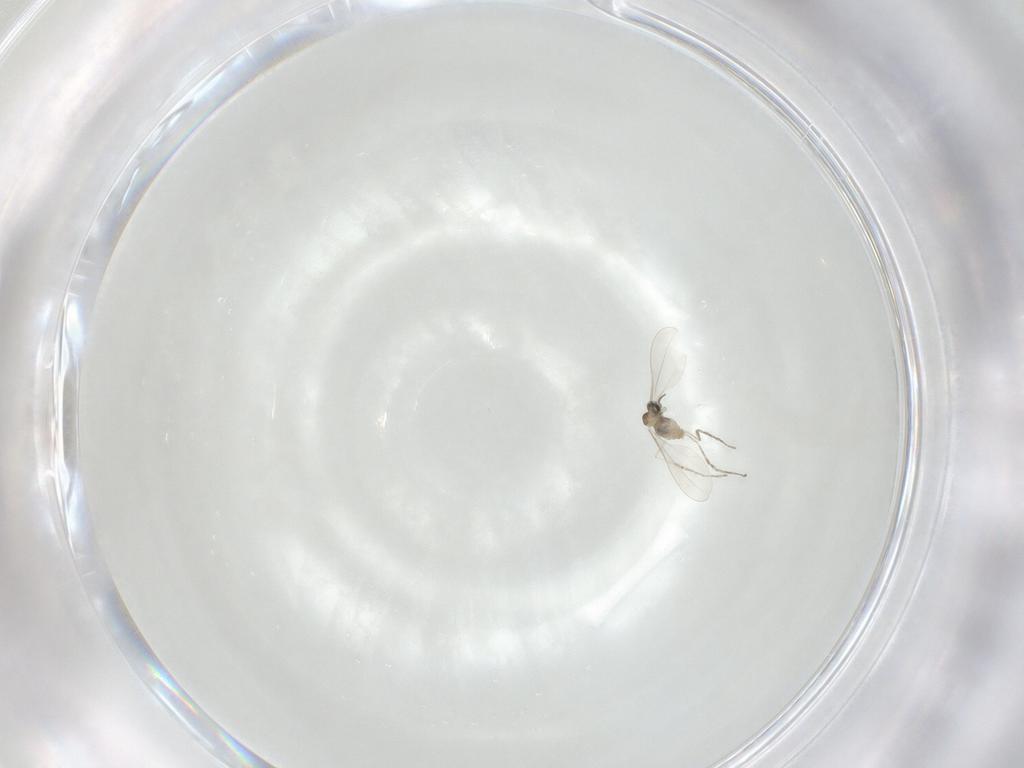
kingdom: Animalia
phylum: Arthropoda
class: Insecta
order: Diptera
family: Cecidomyiidae
